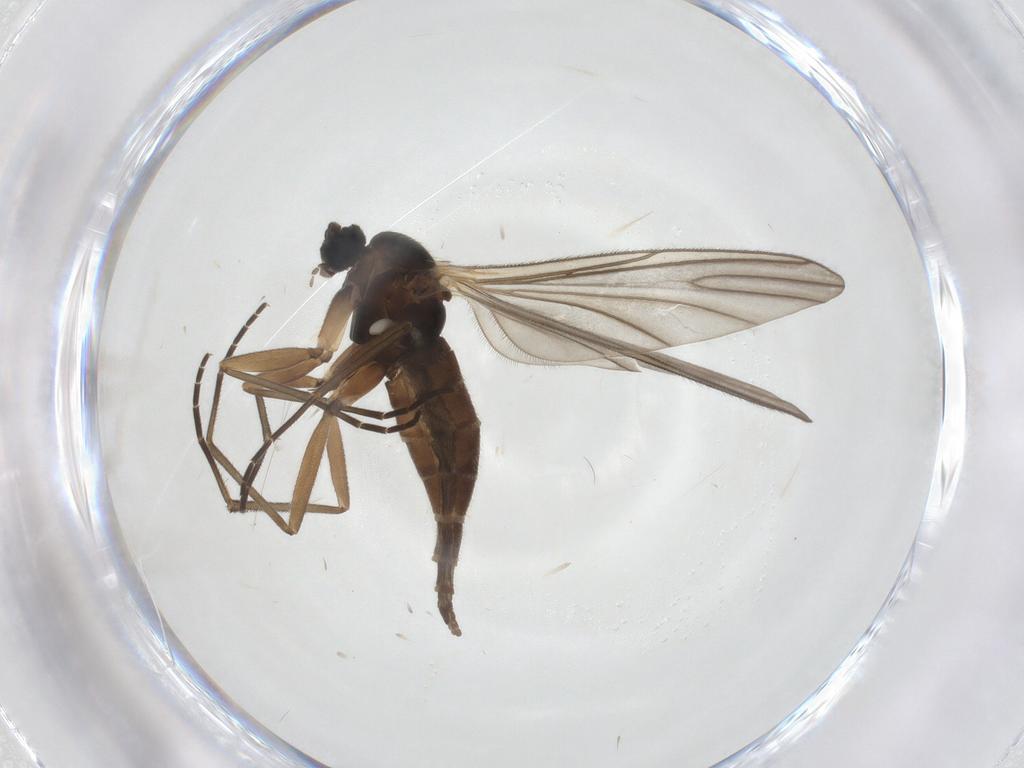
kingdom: Animalia
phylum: Arthropoda
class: Insecta
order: Diptera
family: Sciaridae
